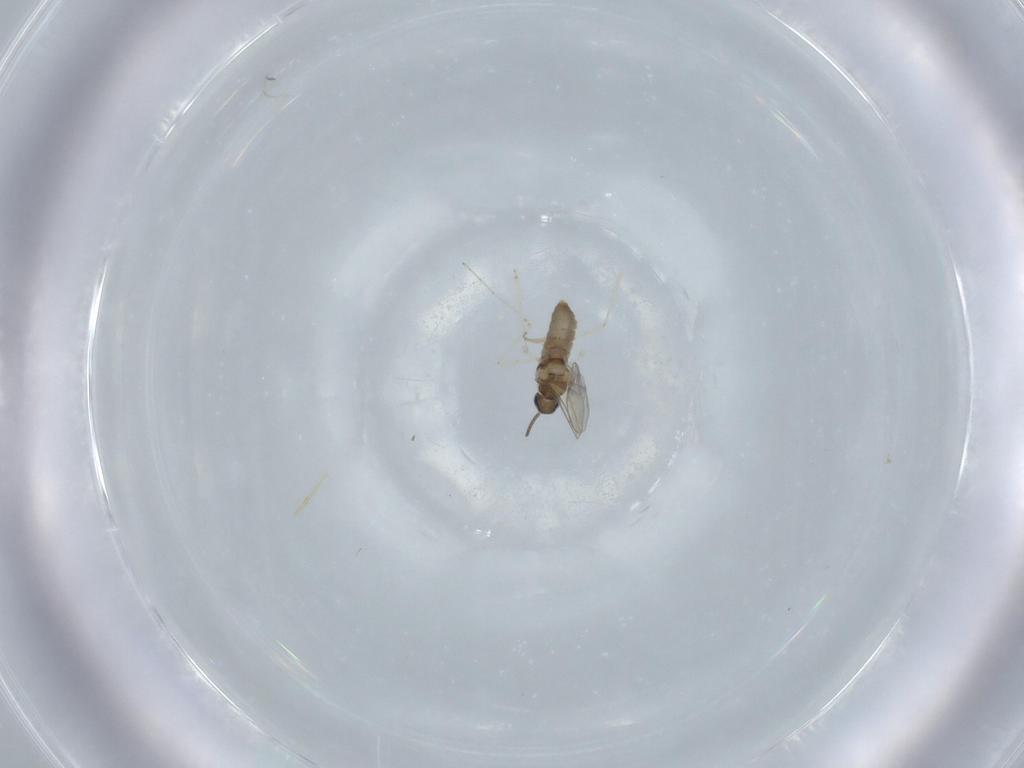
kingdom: Animalia
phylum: Arthropoda
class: Insecta
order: Diptera
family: Cecidomyiidae
